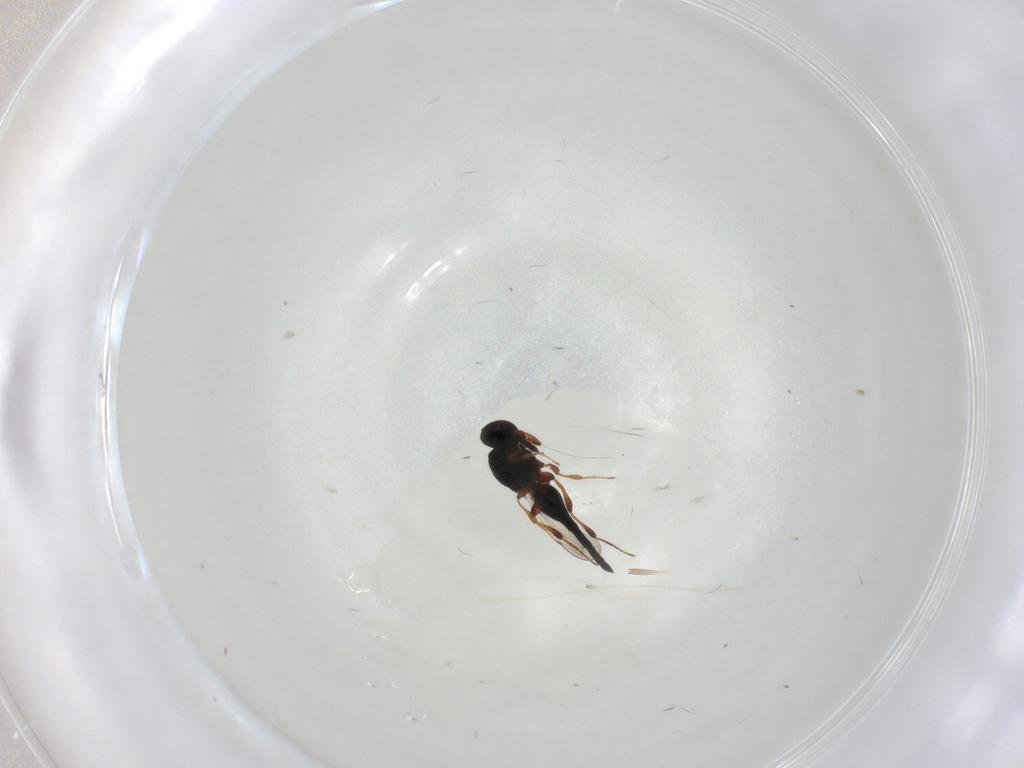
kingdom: Animalia
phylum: Arthropoda
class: Insecta
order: Hymenoptera
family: Platygastridae
